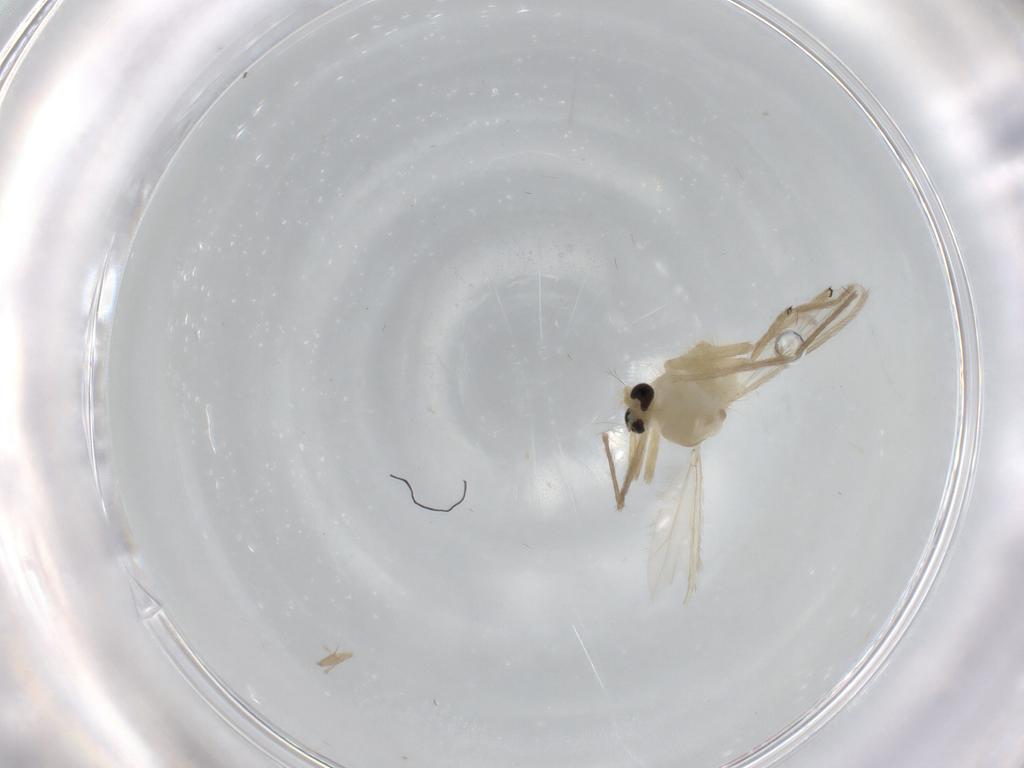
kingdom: Animalia
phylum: Arthropoda
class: Insecta
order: Diptera
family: Chironomidae
